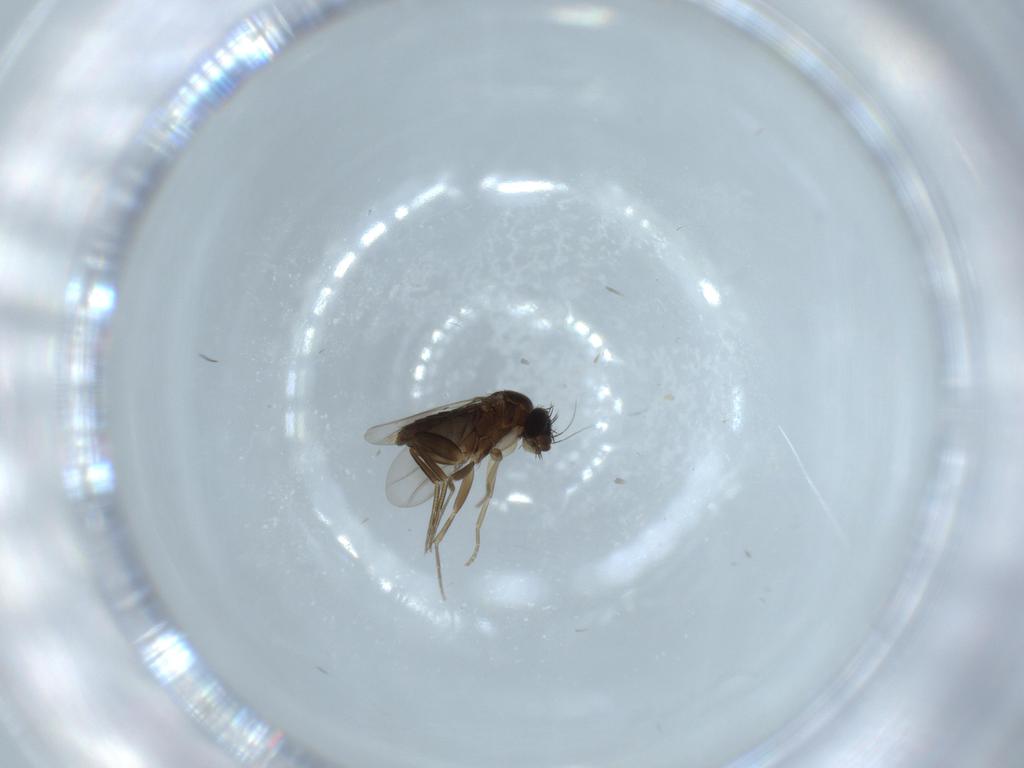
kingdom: Animalia
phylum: Arthropoda
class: Insecta
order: Diptera
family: Phoridae
